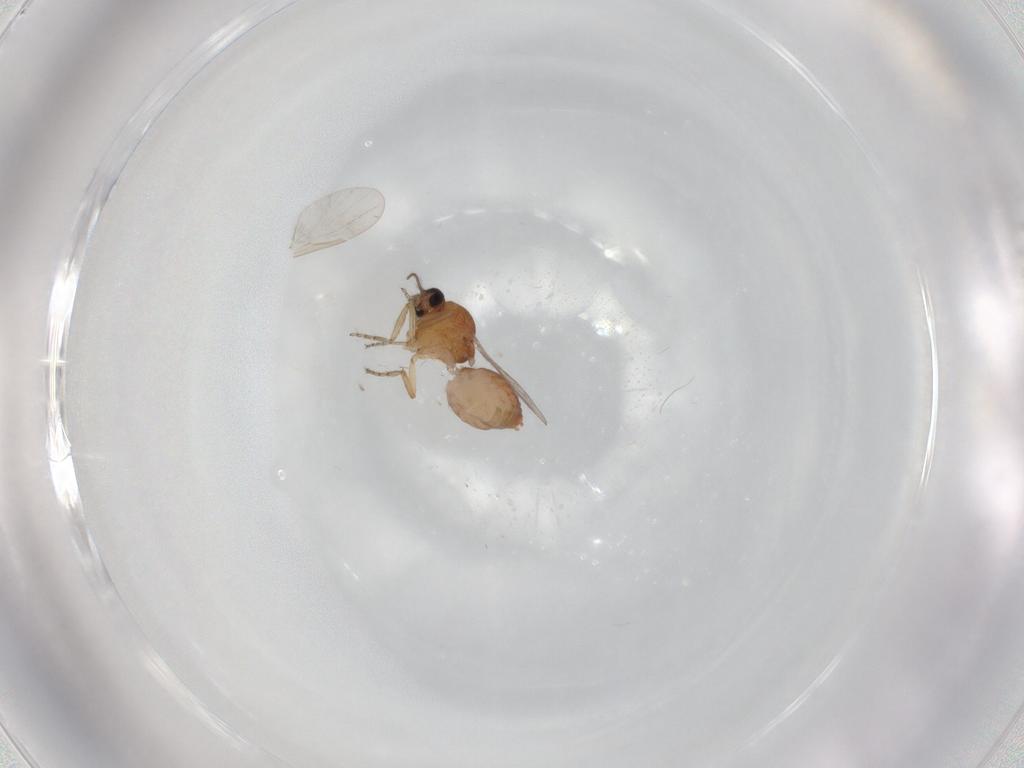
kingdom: Animalia
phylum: Arthropoda
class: Insecta
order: Diptera
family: Ceratopogonidae
